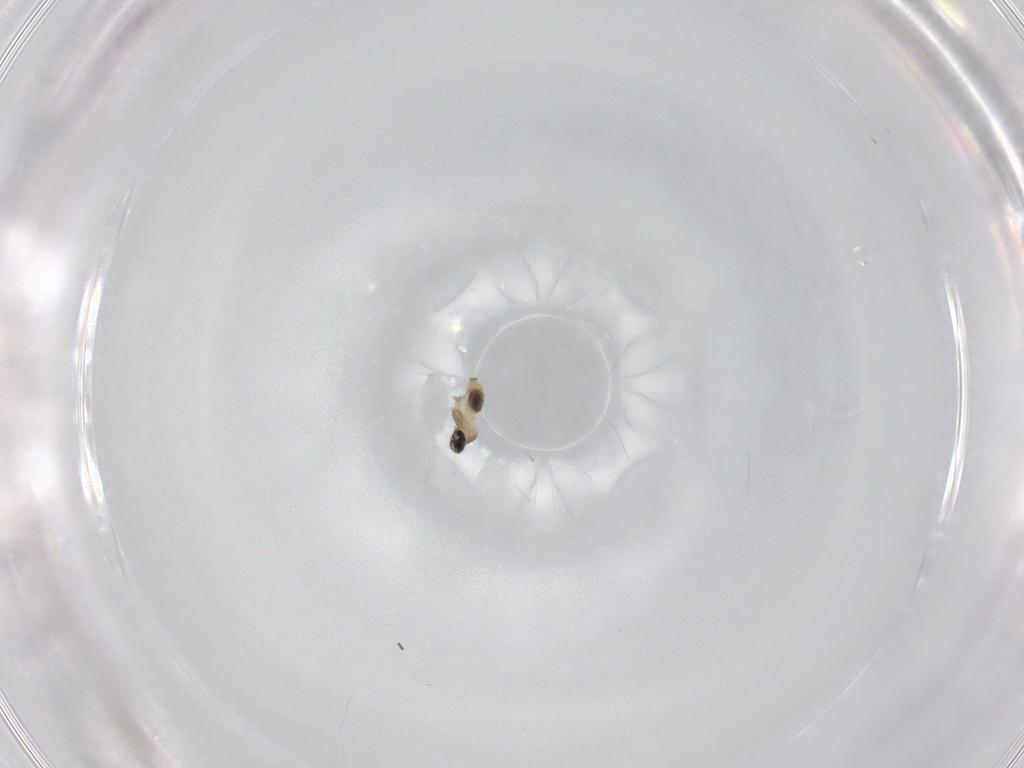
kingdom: Animalia
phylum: Arthropoda
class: Insecta
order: Diptera
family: Cecidomyiidae
